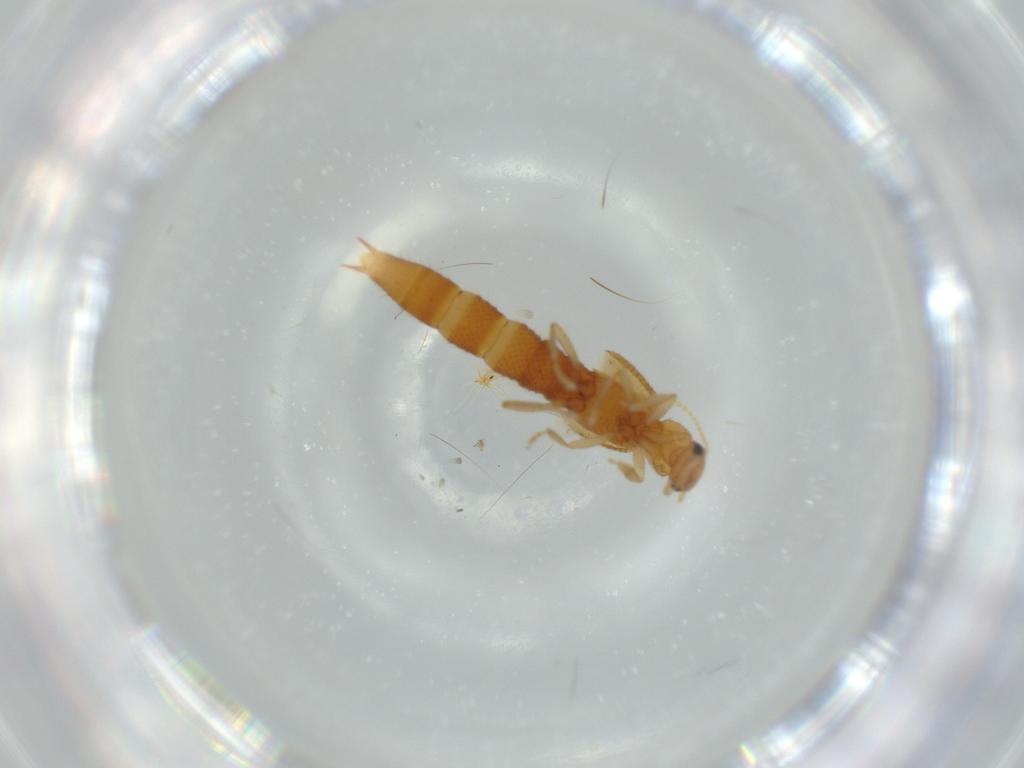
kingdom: Animalia
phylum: Arthropoda
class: Insecta
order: Coleoptera
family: Staphylinidae
